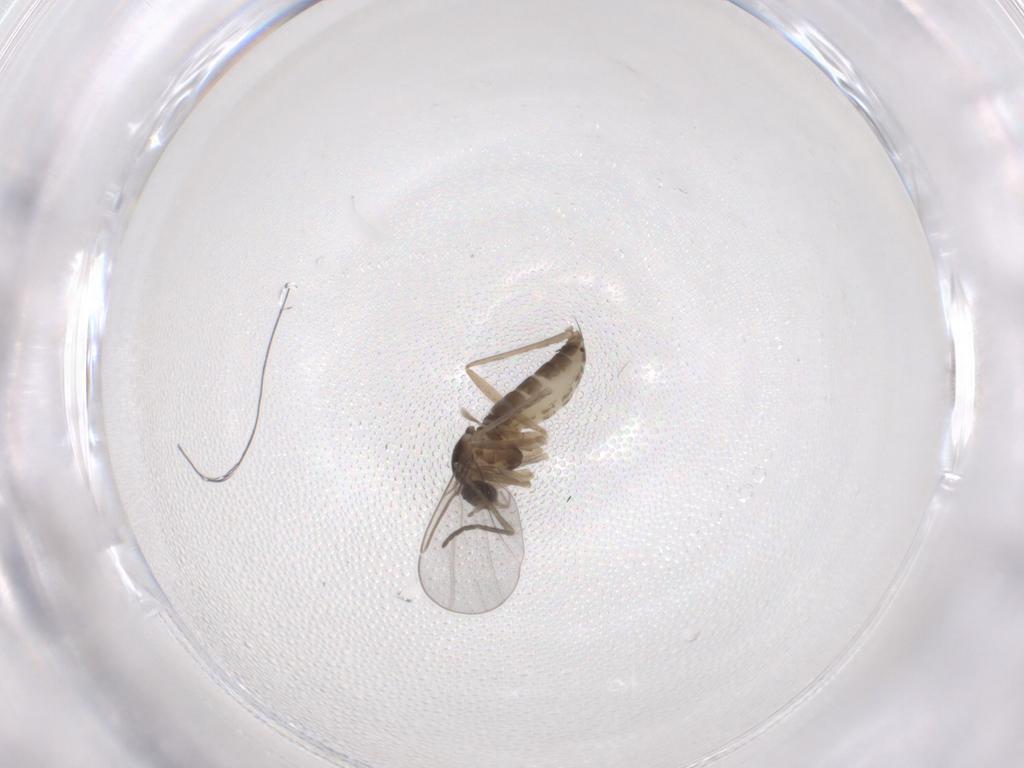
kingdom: Animalia
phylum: Arthropoda
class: Insecta
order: Diptera
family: Cecidomyiidae
